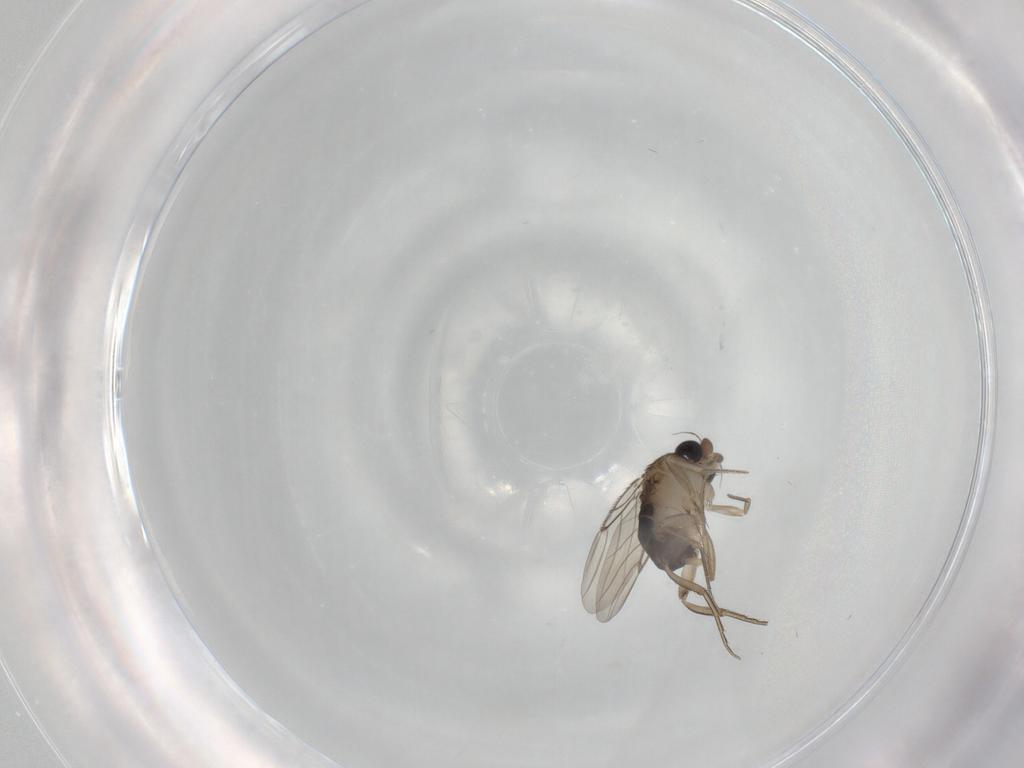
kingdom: Animalia
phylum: Arthropoda
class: Insecta
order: Diptera
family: Phoridae
